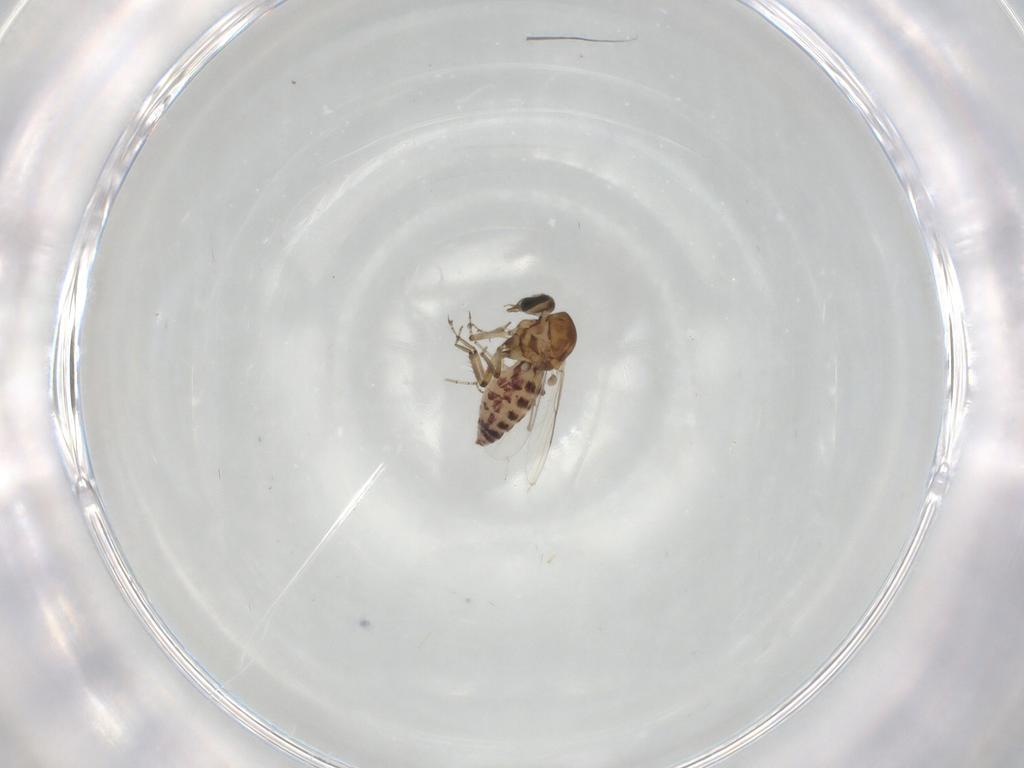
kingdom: Animalia
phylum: Arthropoda
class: Insecta
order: Diptera
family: Ceratopogonidae
